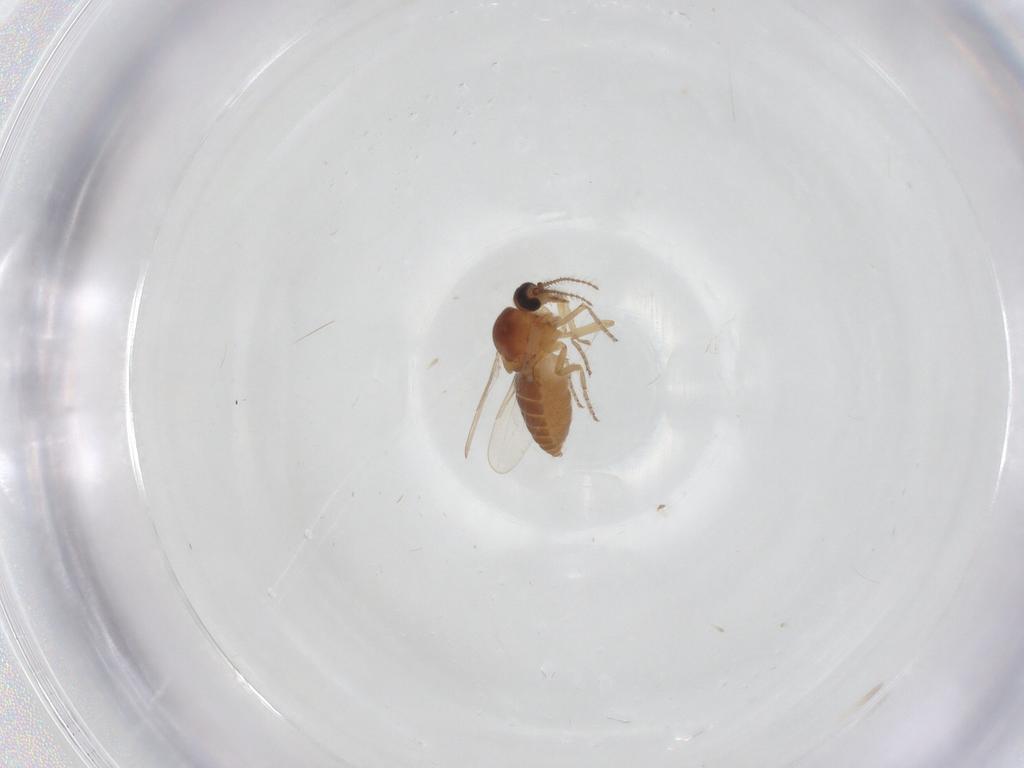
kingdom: Animalia
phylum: Arthropoda
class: Insecta
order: Diptera
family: Ceratopogonidae
